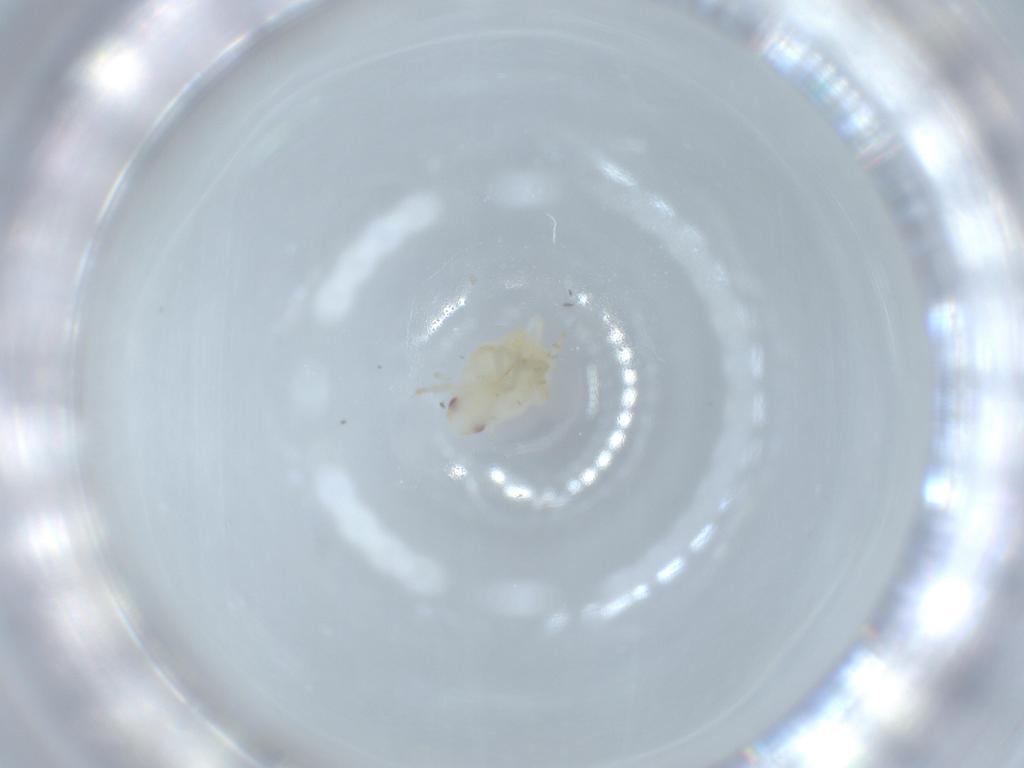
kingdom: Animalia
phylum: Arthropoda
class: Insecta
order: Hemiptera
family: Flatidae
